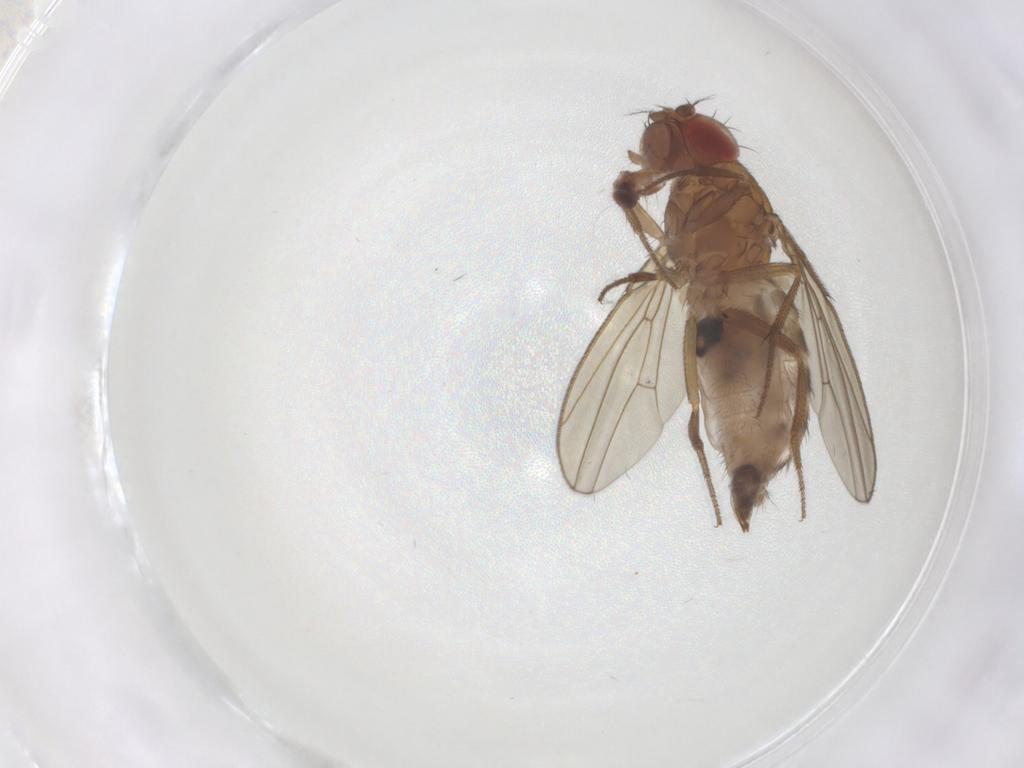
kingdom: Animalia
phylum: Arthropoda
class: Insecta
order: Diptera
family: Drosophilidae
